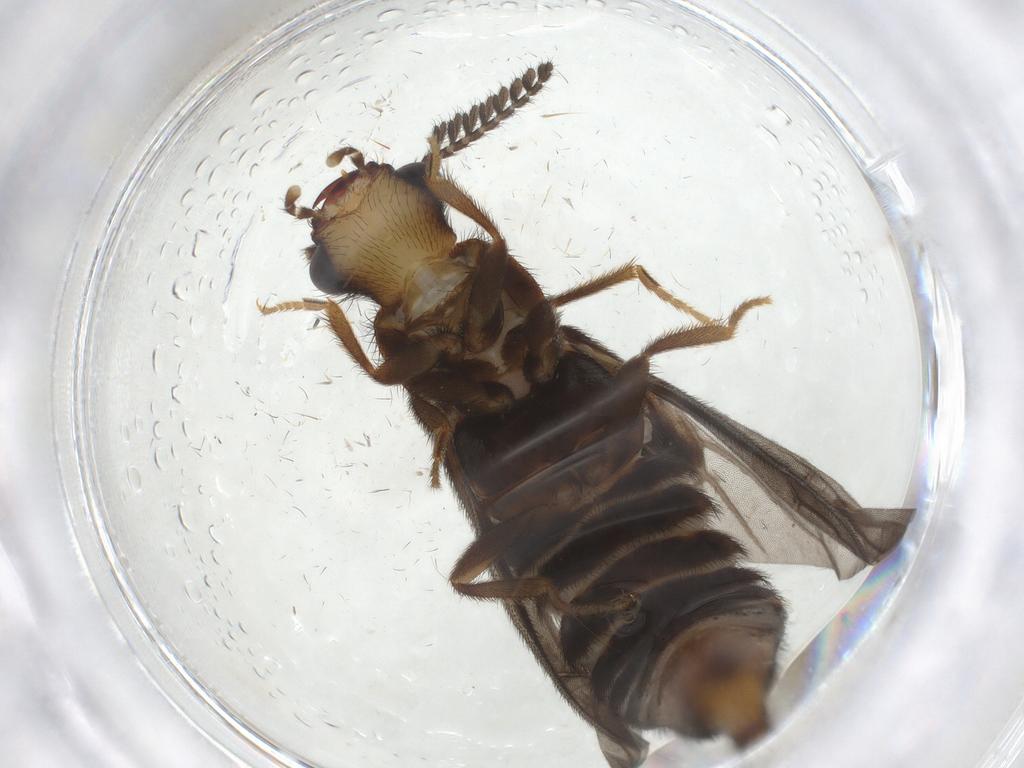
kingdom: Animalia
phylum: Arthropoda
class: Insecta
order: Coleoptera
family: Phengodidae
